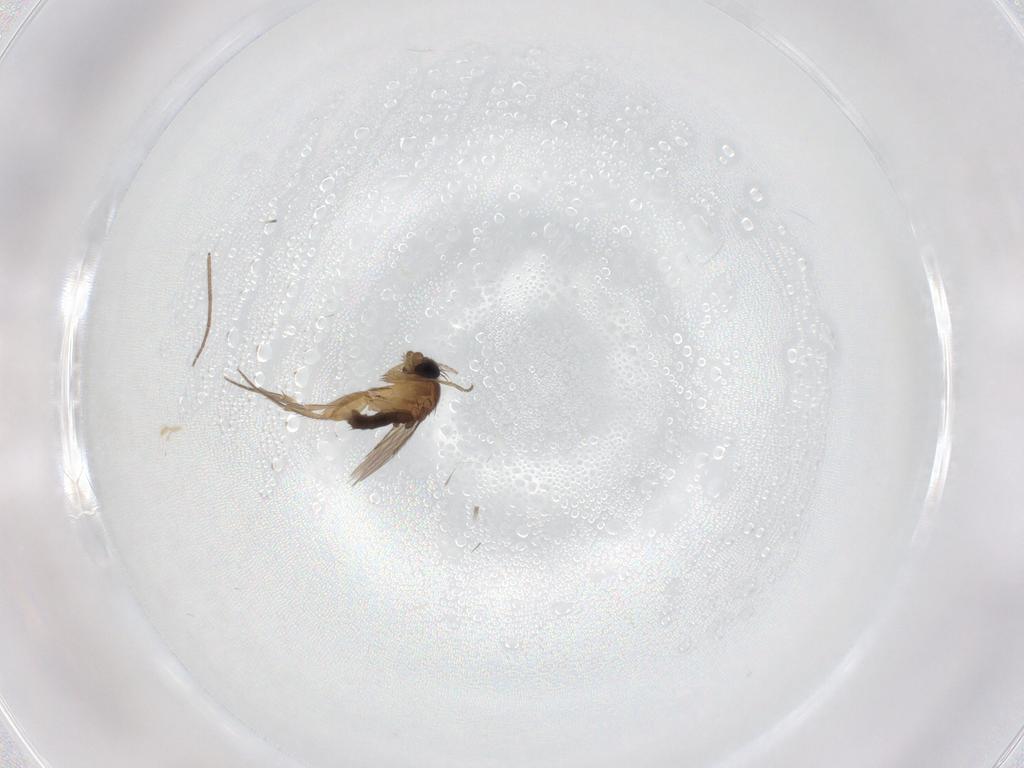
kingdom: Animalia
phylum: Arthropoda
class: Insecta
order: Diptera
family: Phoridae
